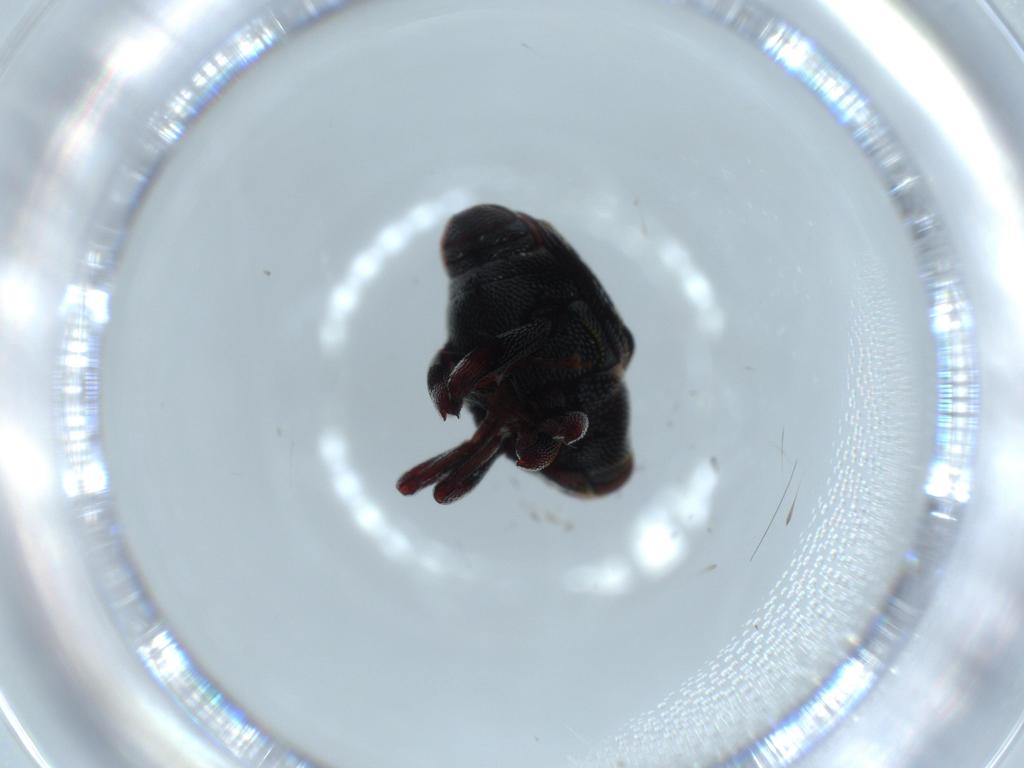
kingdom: Animalia
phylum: Arthropoda
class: Insecta
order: Coleoptera
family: Curculionidae
